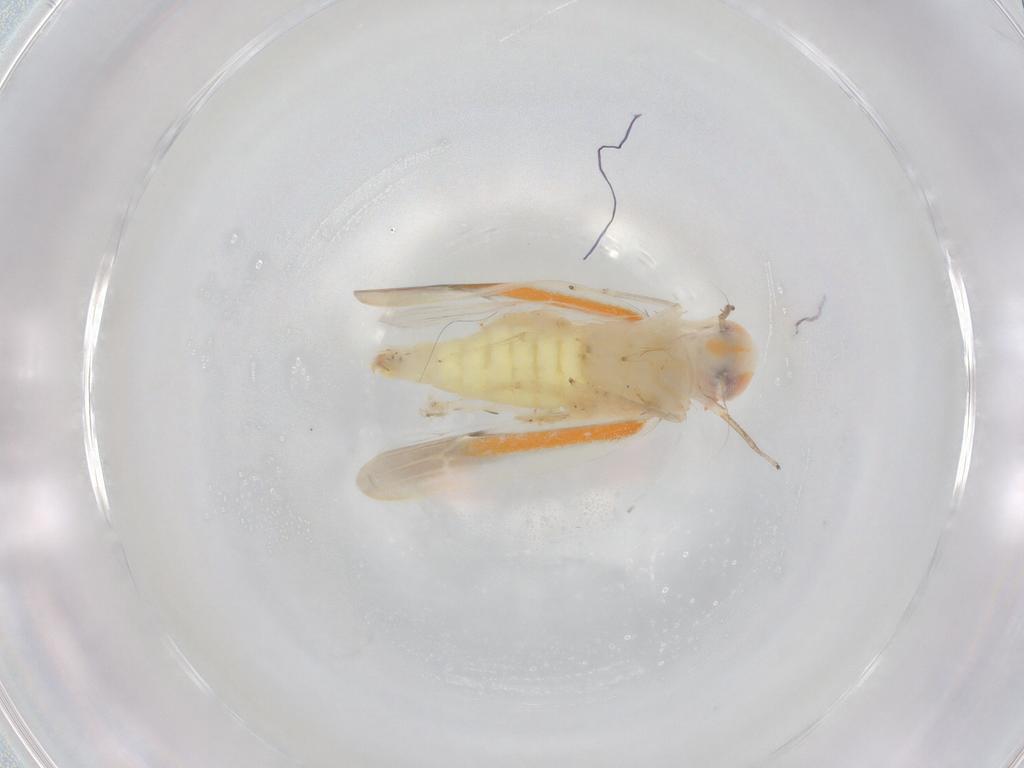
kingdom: Animalia
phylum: Arthropoda
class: Insecta
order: Hemiptera
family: Cicadellidae
